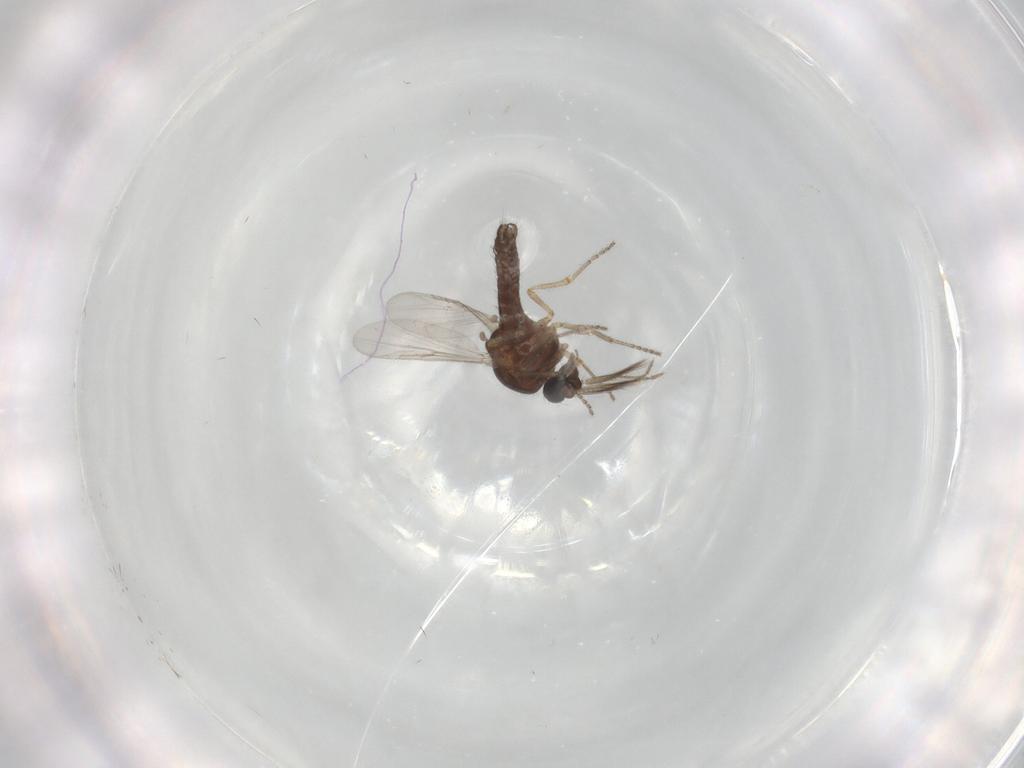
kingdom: Animalia
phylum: Arthropoda
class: Insecta
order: Diptera
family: Ceratopogonidae
